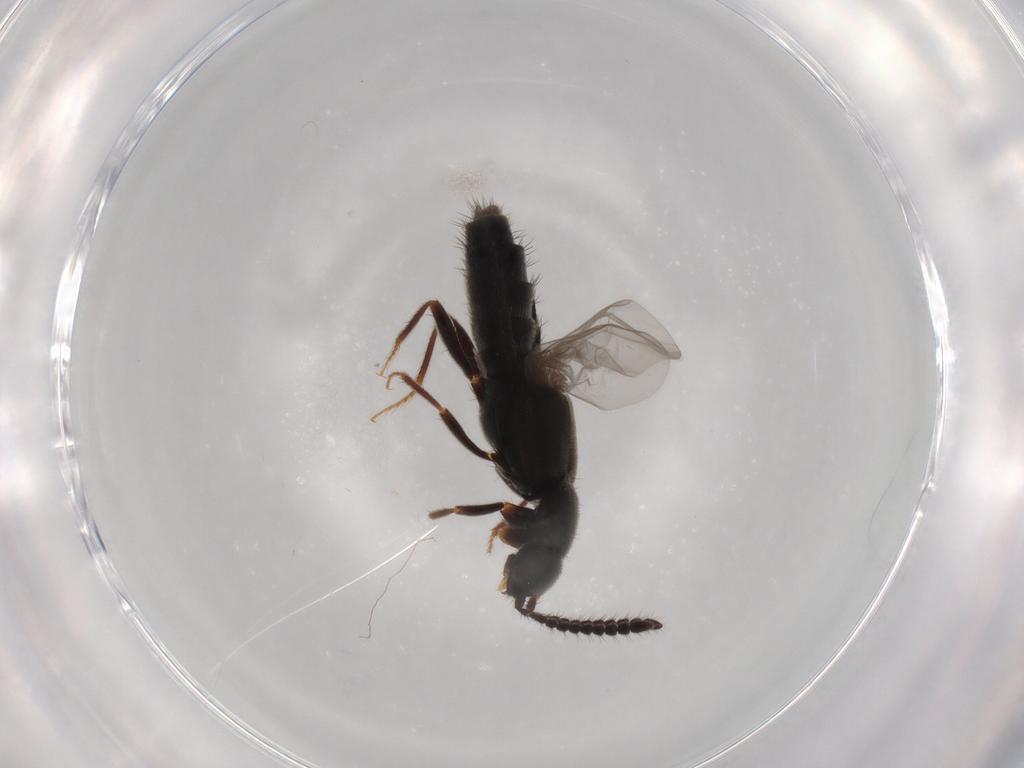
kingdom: Animalia
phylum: Arthropoda
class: Insecta
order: Coleoptera
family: Staphylinidae
